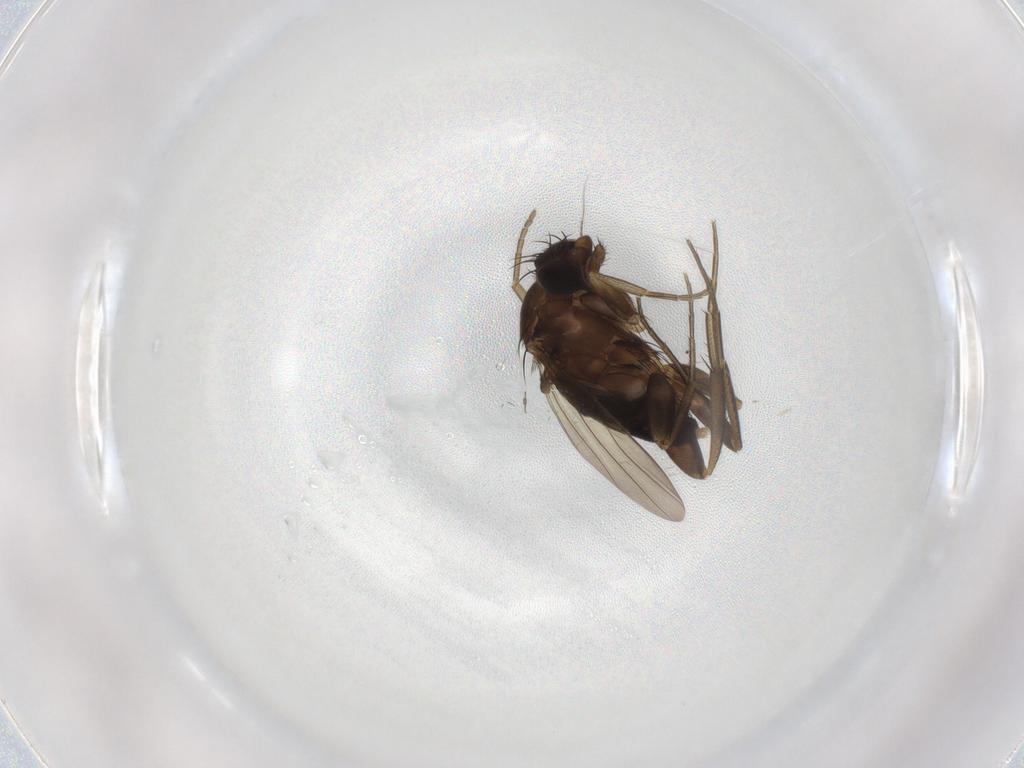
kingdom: Animalia
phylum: Arthropoda
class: Insecta
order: Diptera
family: Phoridae
